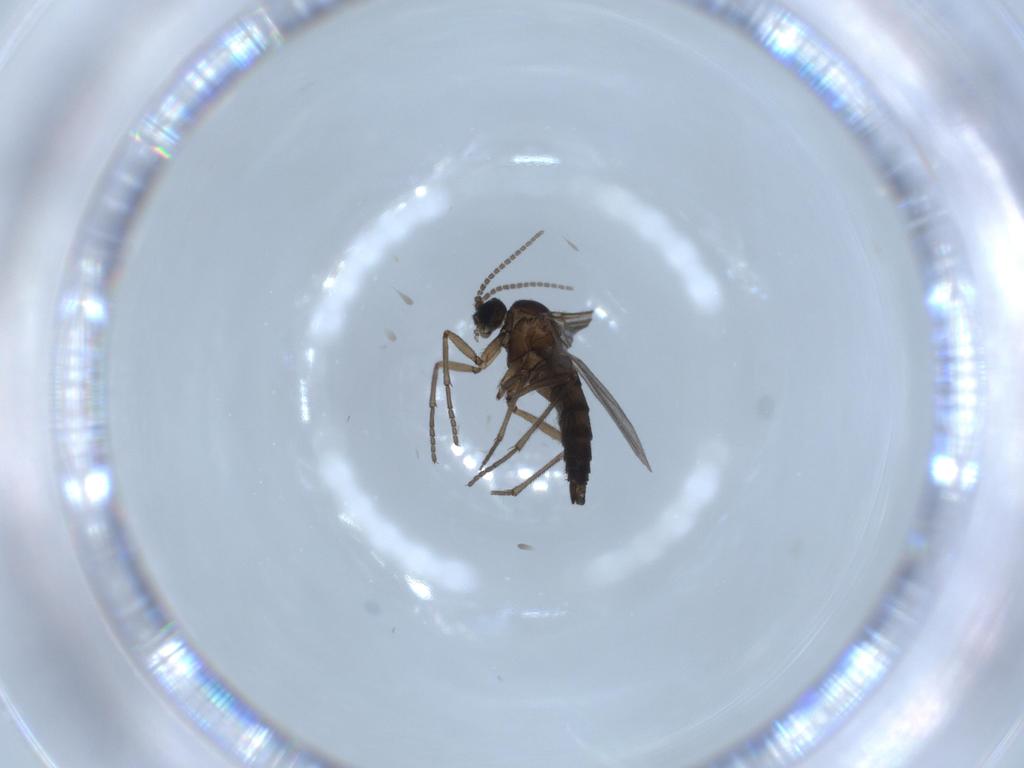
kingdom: Animalia
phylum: Arthropoda
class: Insecta
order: Diptera
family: Sciaridae
